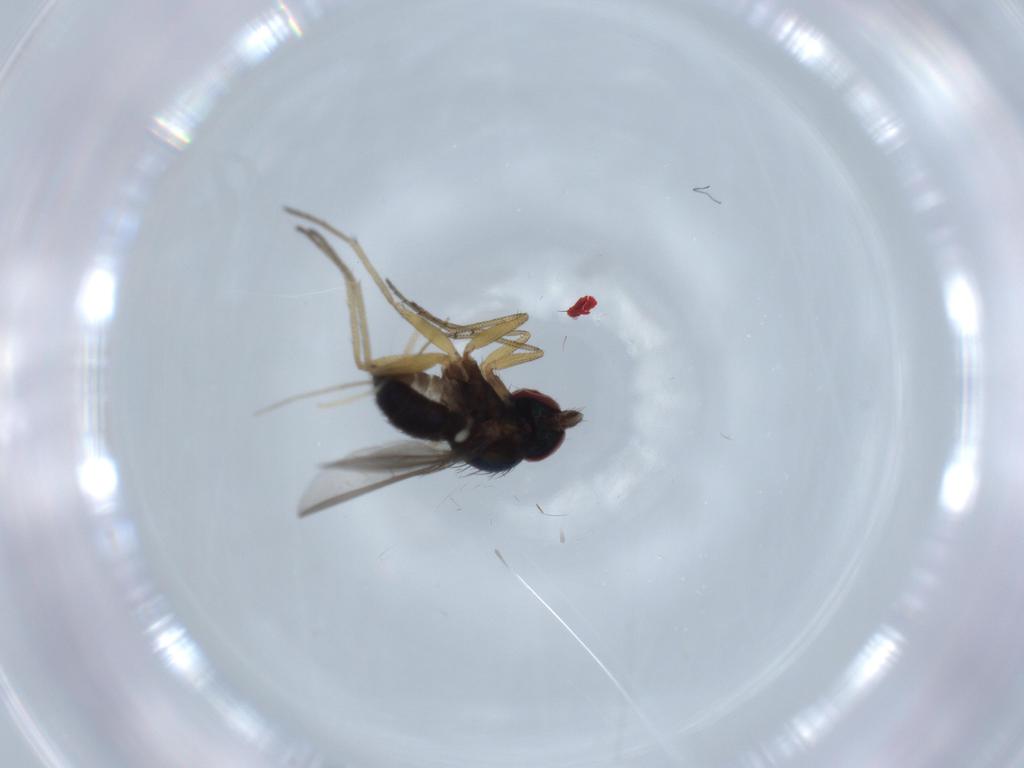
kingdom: Animalia
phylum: Arthropoda
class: Insecta
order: Diptera
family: Dolichopodidae
